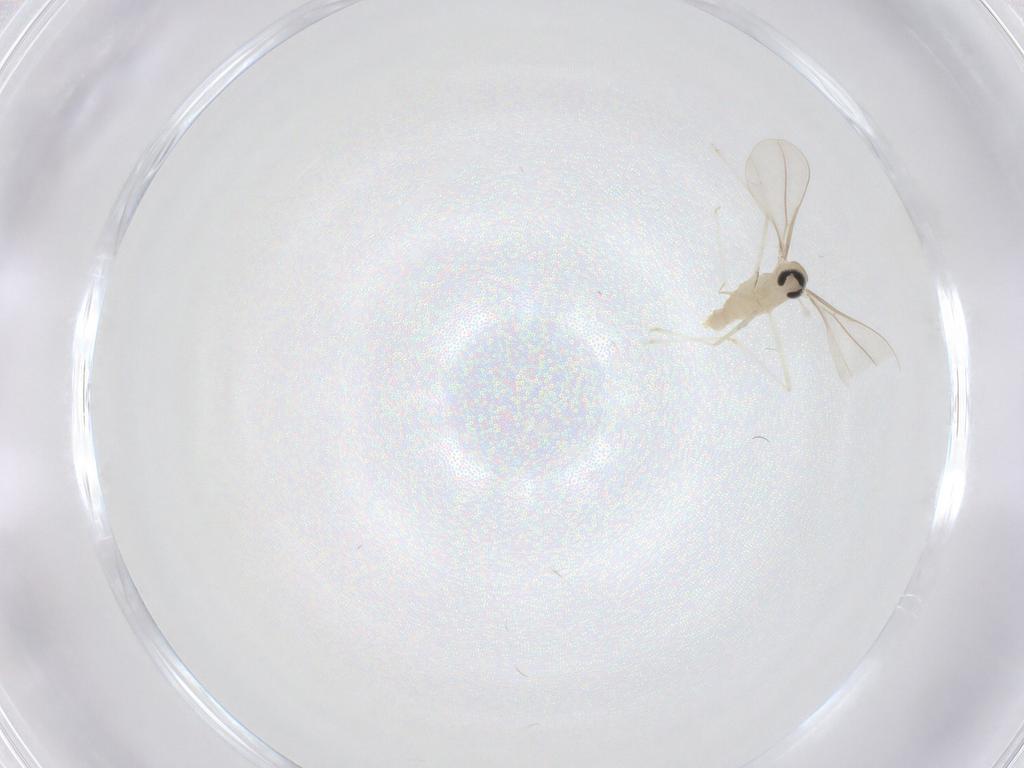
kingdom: Animalia
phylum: Arthropoda
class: Insecta
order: Diptera
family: Cecidomyiidae
